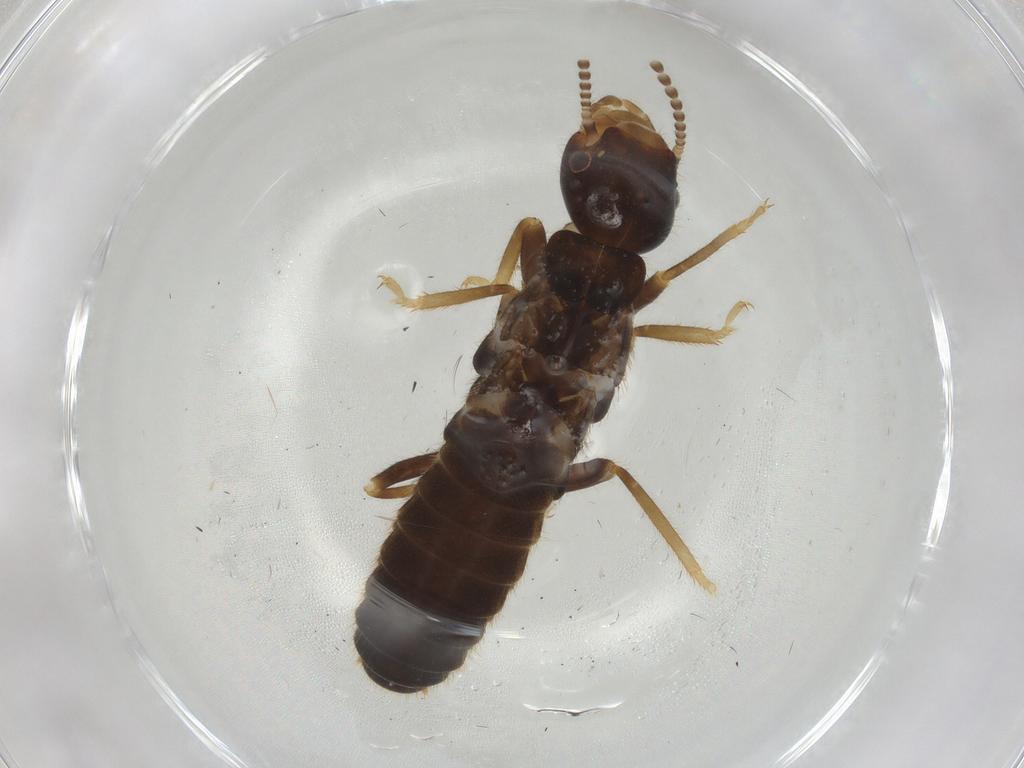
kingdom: Animalia
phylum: Arthropoda
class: Insecta
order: Blattodea
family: Rhinotermitidae
